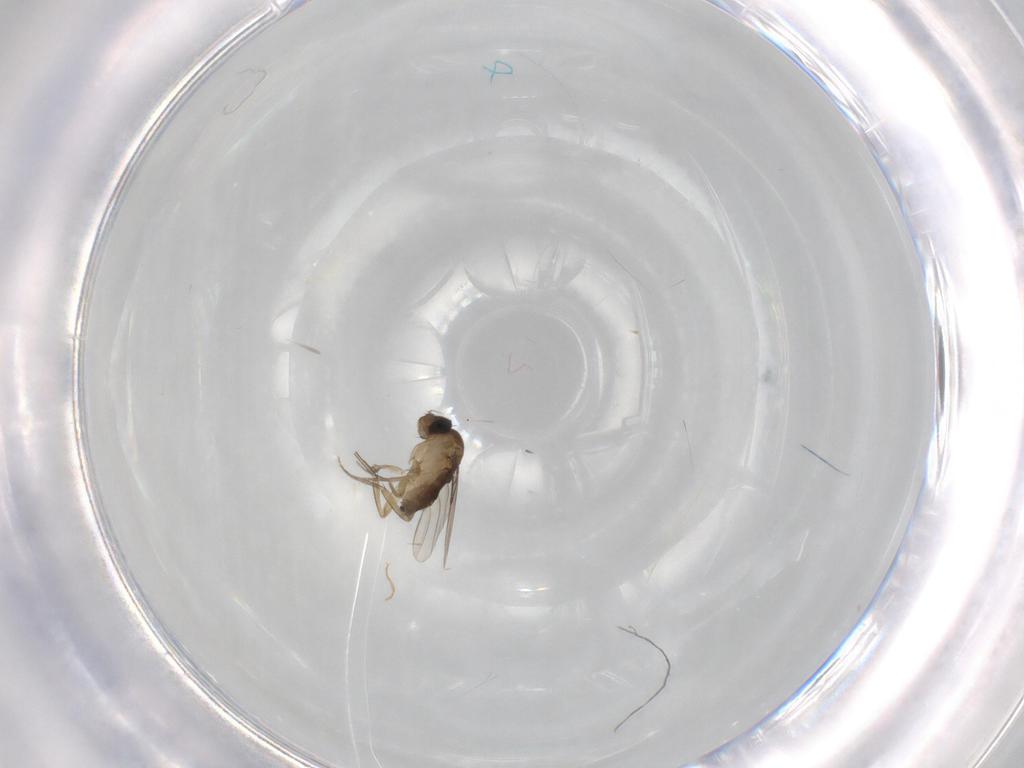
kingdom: Animalia
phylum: Arthropoda
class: Insecta
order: Diptera
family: Phoridae
